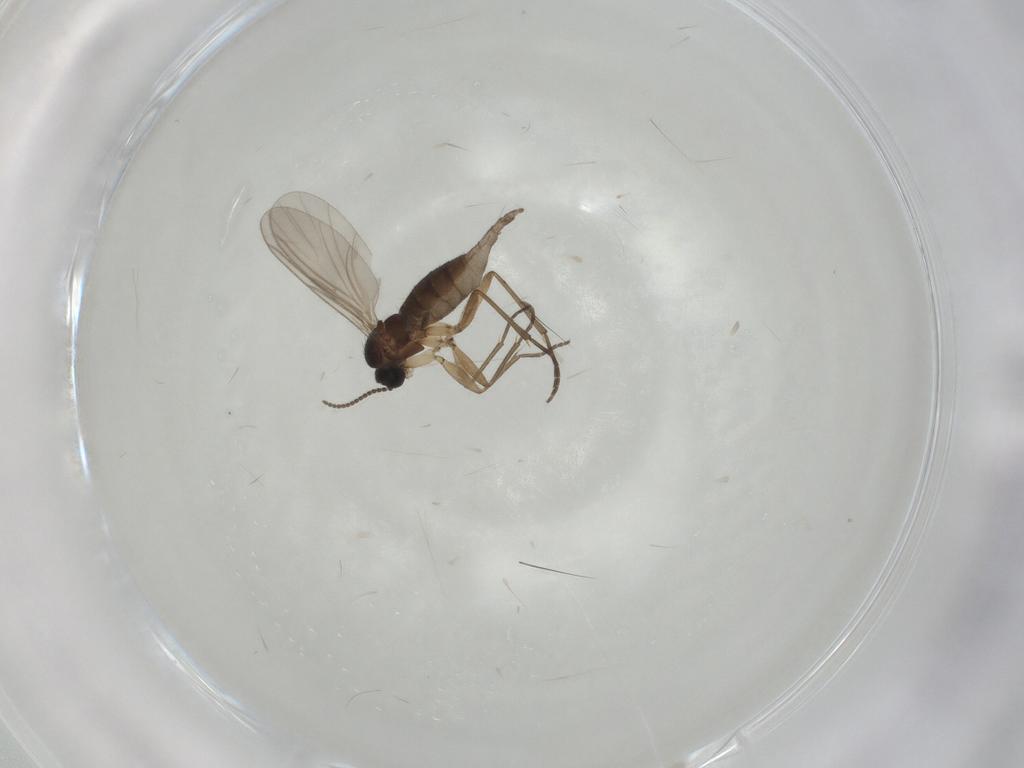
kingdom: Animalia
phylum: Arthropoda
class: Insecta
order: Diptera
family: Sciaridae
